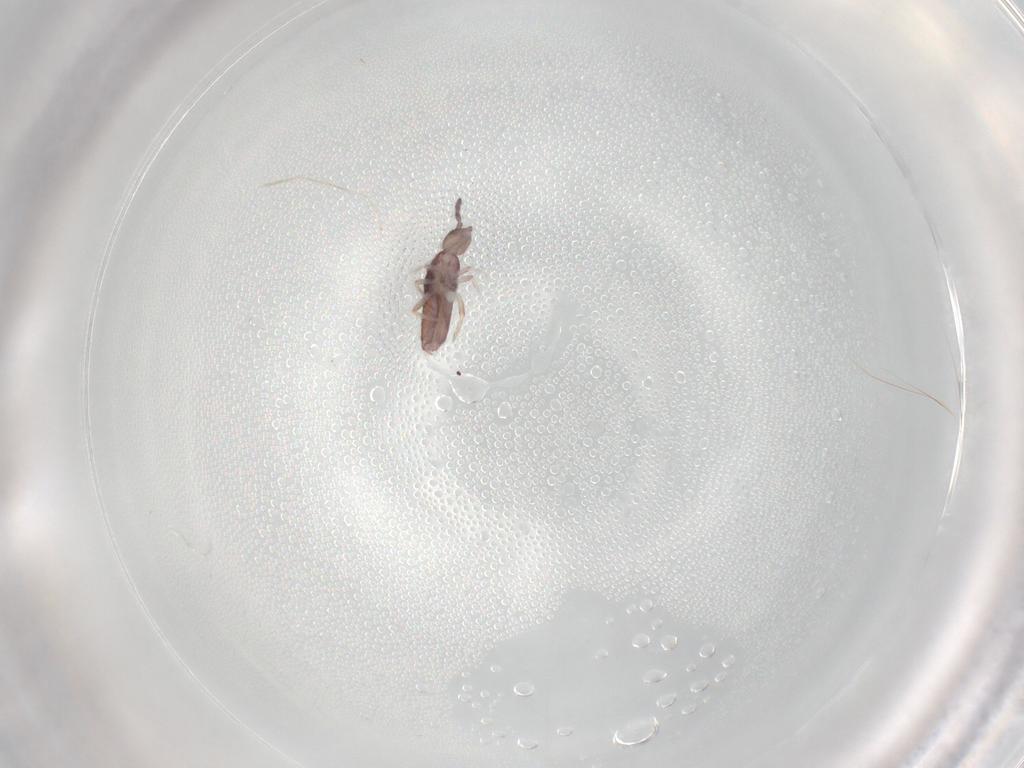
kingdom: Animalia
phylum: Arthropoda
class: Collembola
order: Entomobryomorpha
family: Entomobryidae
